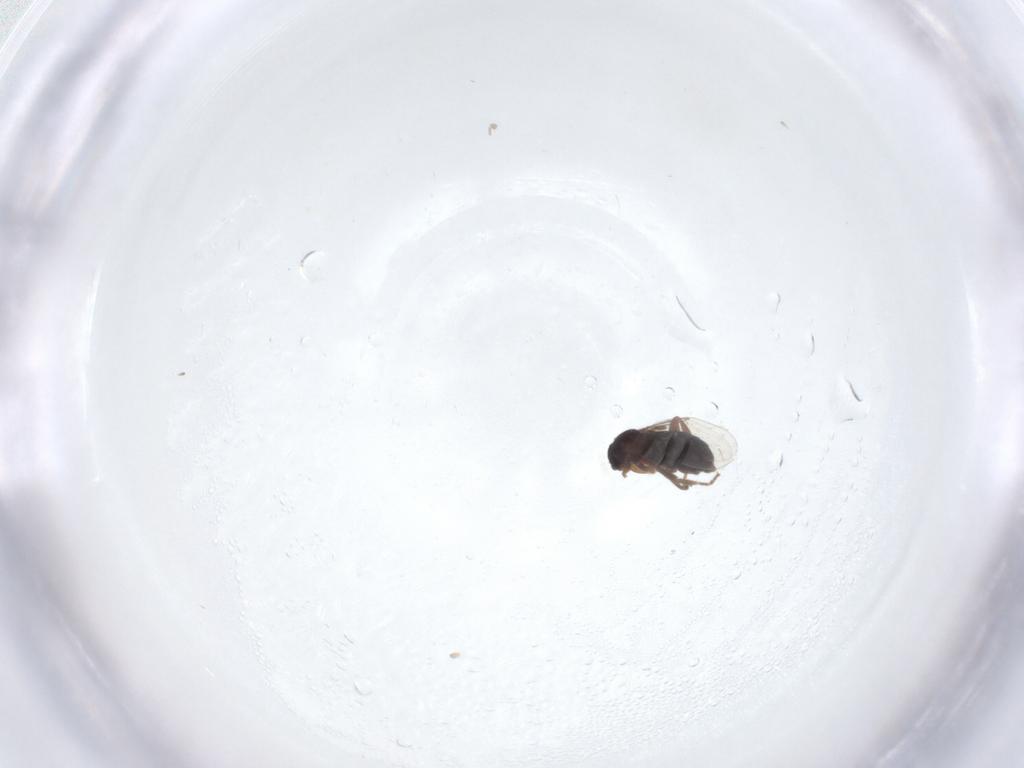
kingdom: Animalia
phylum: Arthropoda
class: Insecta
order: Diptera
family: Phoridae
